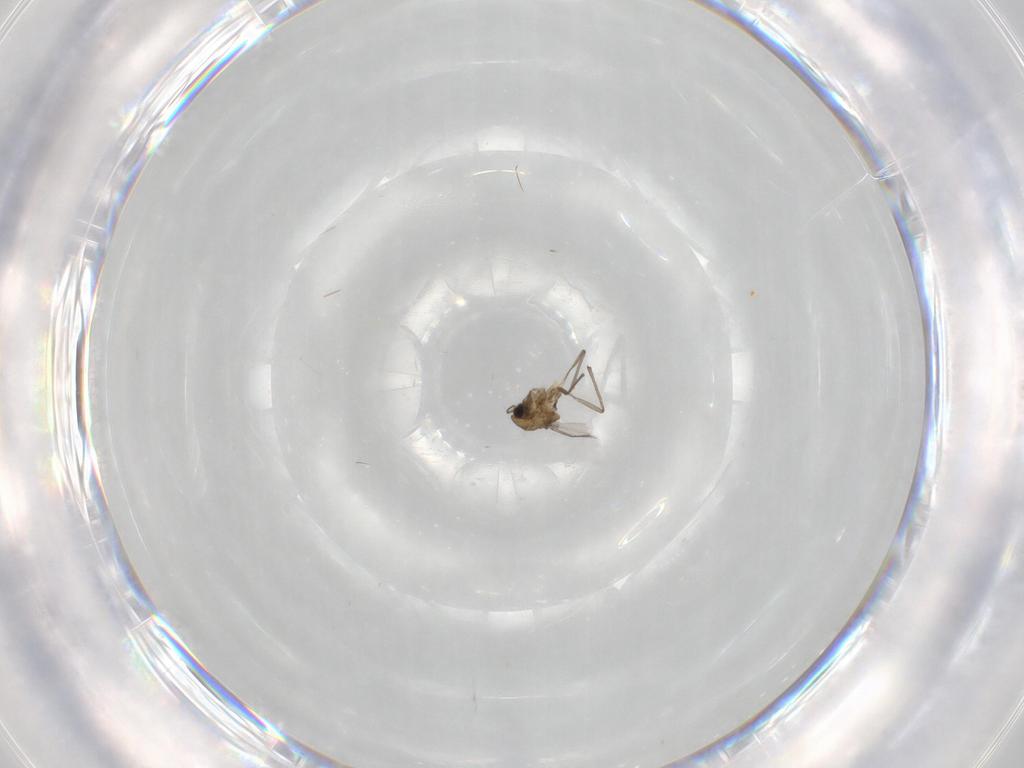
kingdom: Animalia
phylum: Arthropoda
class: Insecta
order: Diptera
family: Chironomidae
